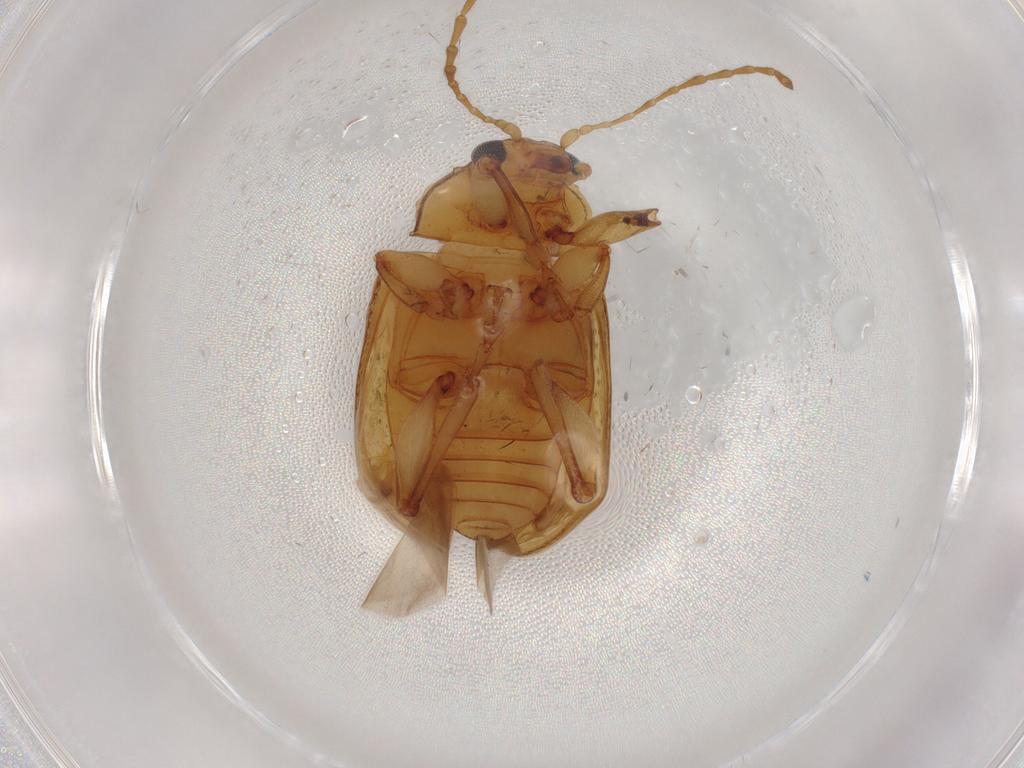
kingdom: Animalia
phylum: Arthropoda
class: Insecta
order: Coleoptera
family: Chrysomelidae
